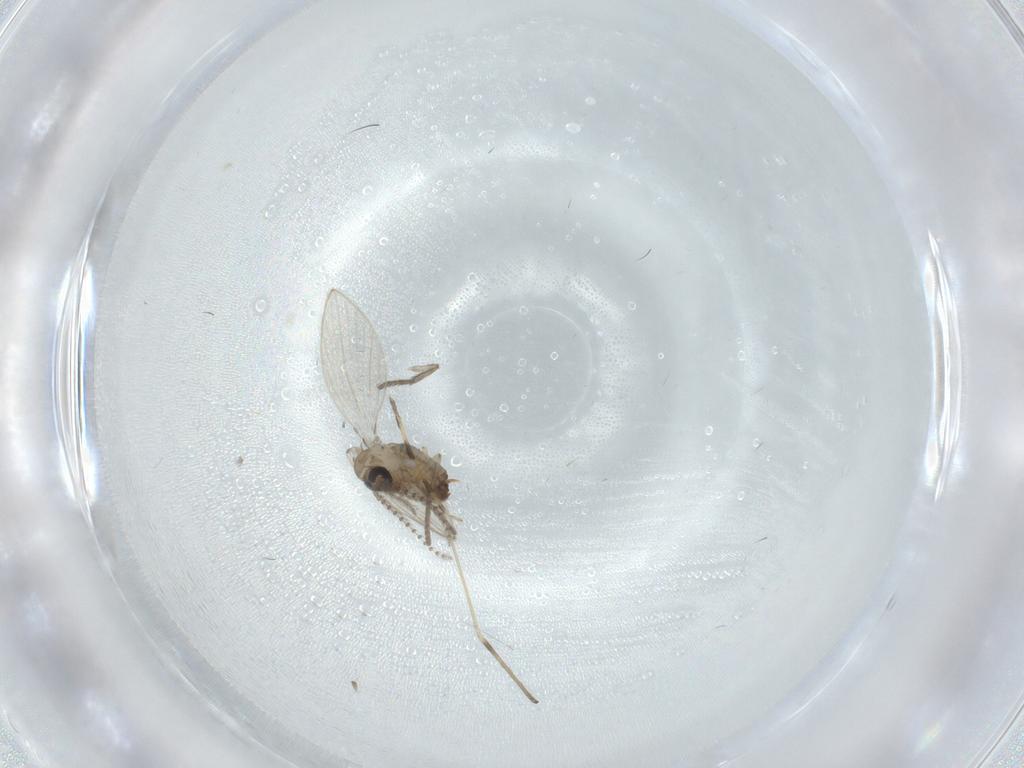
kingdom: Animalia
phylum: Arthropoda
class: Insecta
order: Diptera
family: Psychodidae
